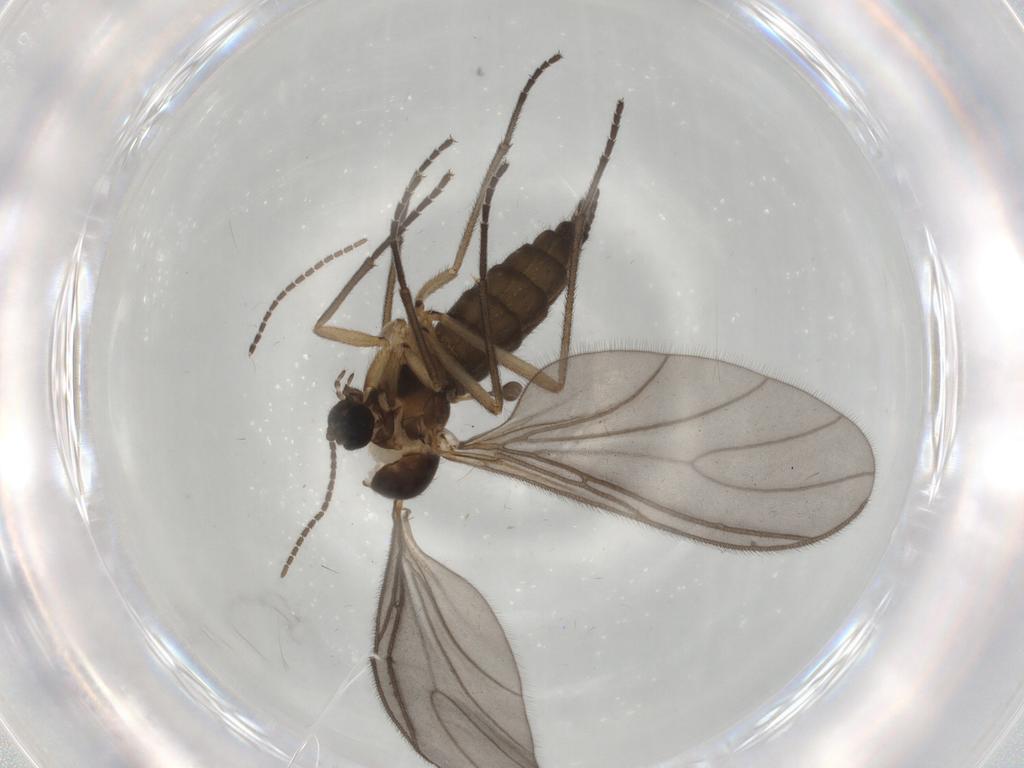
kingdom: Animalia
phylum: Arthropoda
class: Insecta
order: Diptera
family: Sciaridae
